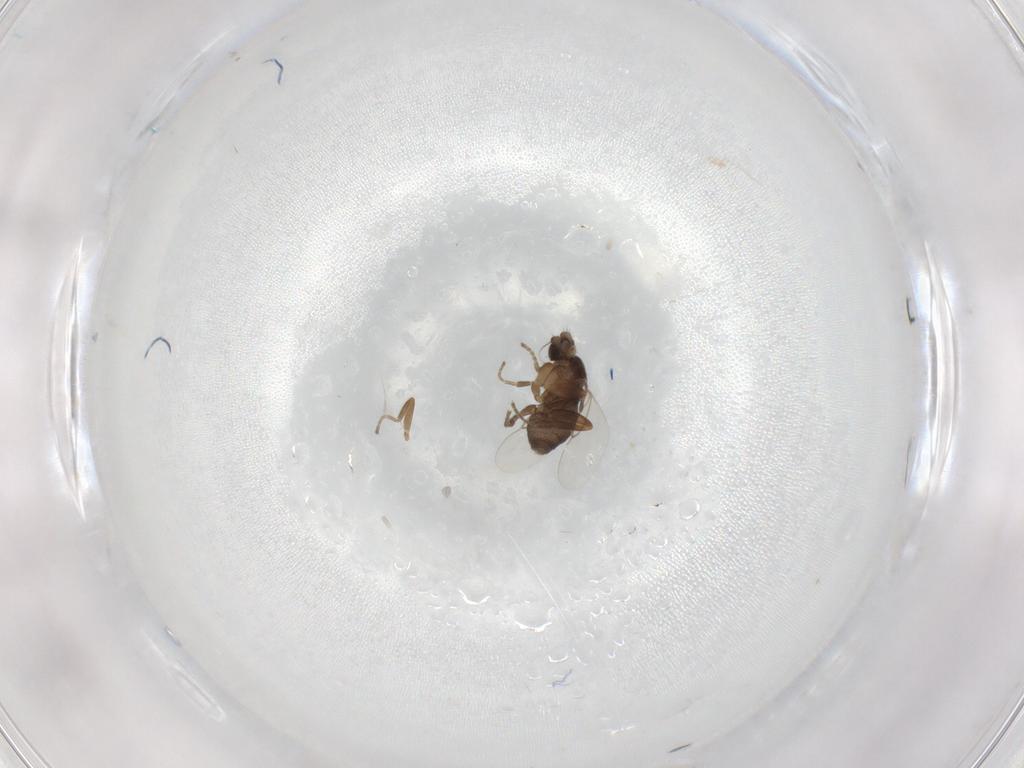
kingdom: Animalia
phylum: Arthropoda
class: Insecta
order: Diptera
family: Phoridae
